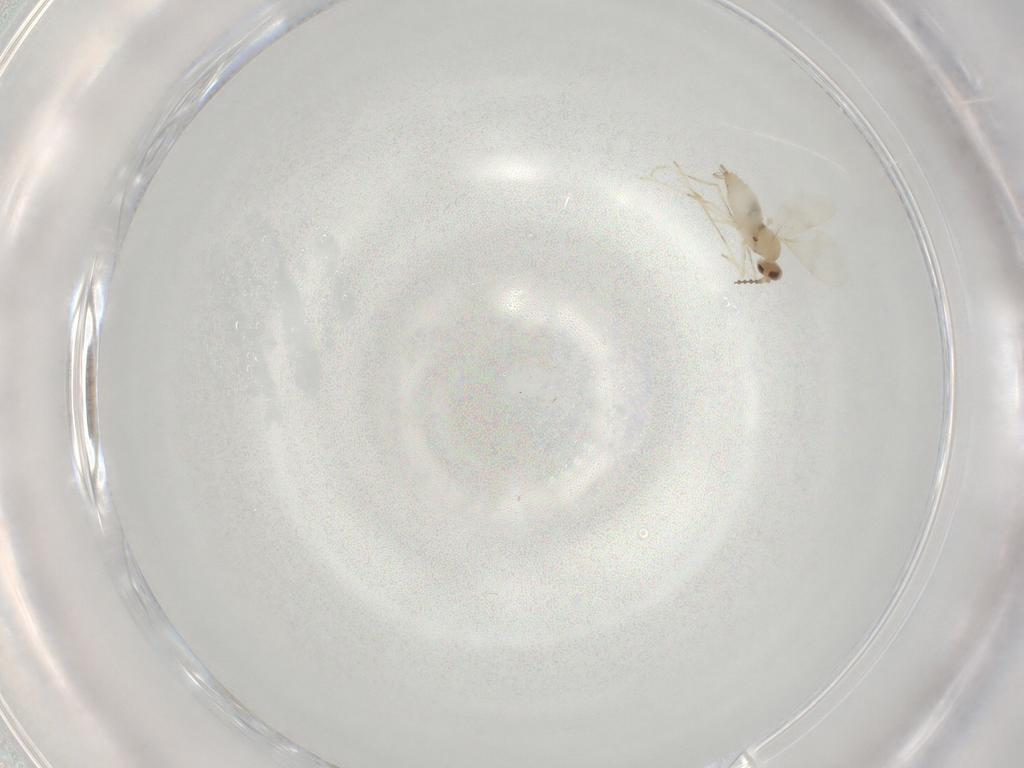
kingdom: Animalia
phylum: Arthropoda
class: Insecta
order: Diptera
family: Cecidomyiidae
